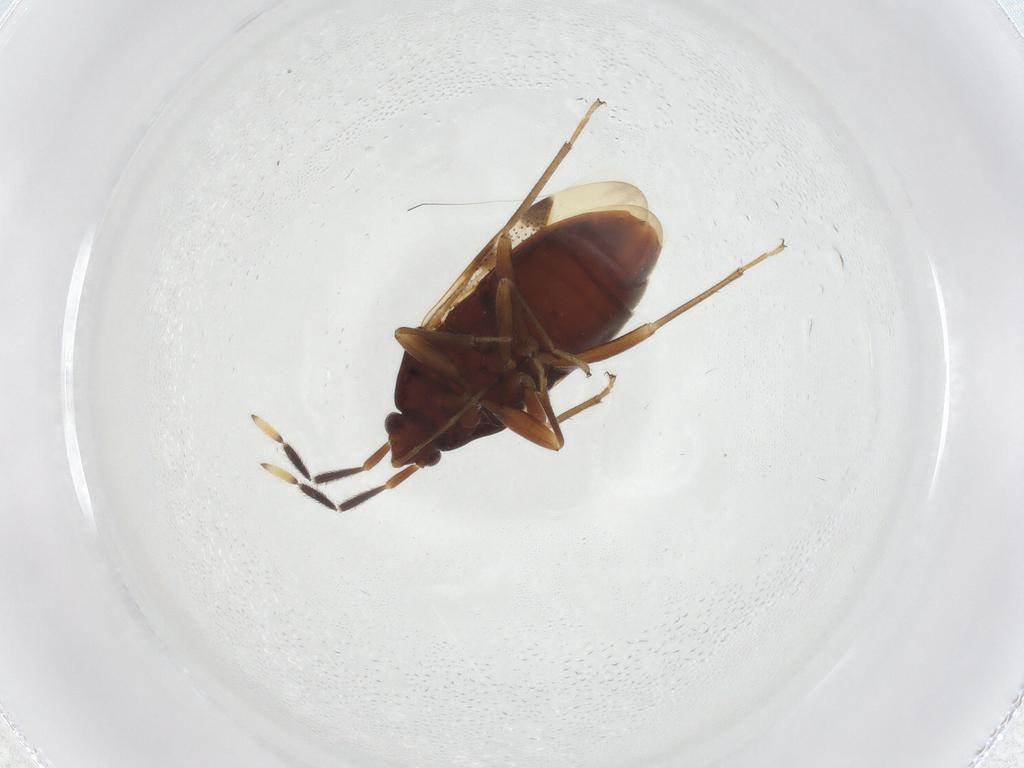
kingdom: Animalia
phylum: Arthropoda
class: Insecta
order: Hemiptera
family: Rhyparochromidae
